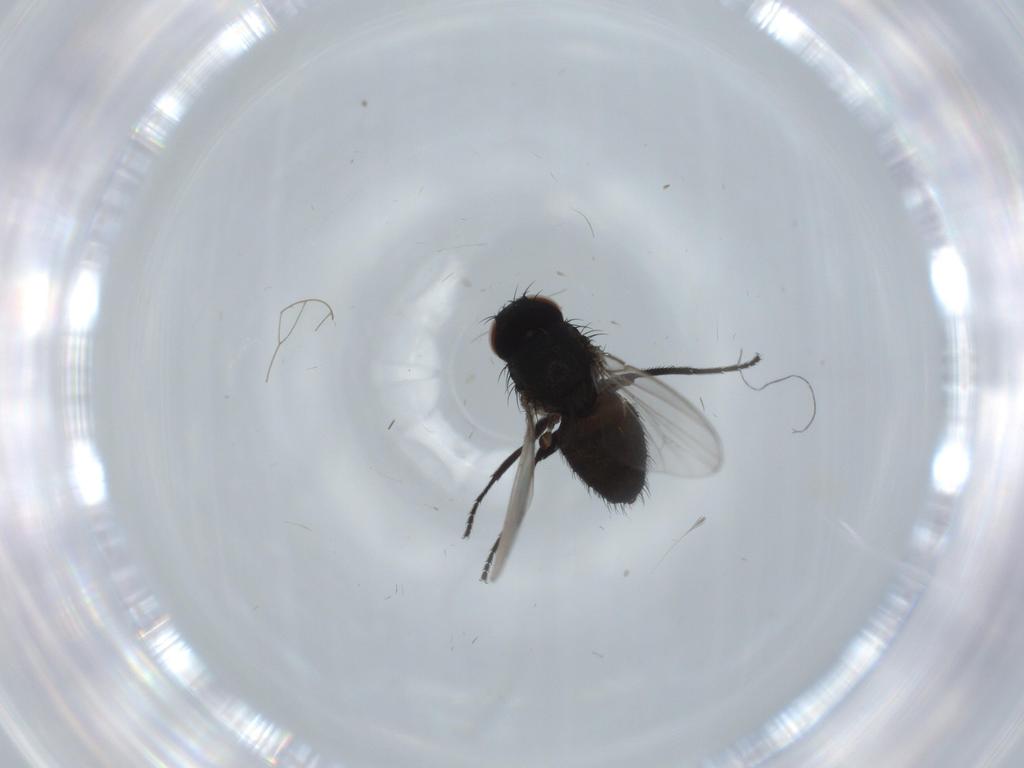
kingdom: Animalia
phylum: Arthropoda
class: Insecta
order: Diptera
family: Milichiidae
